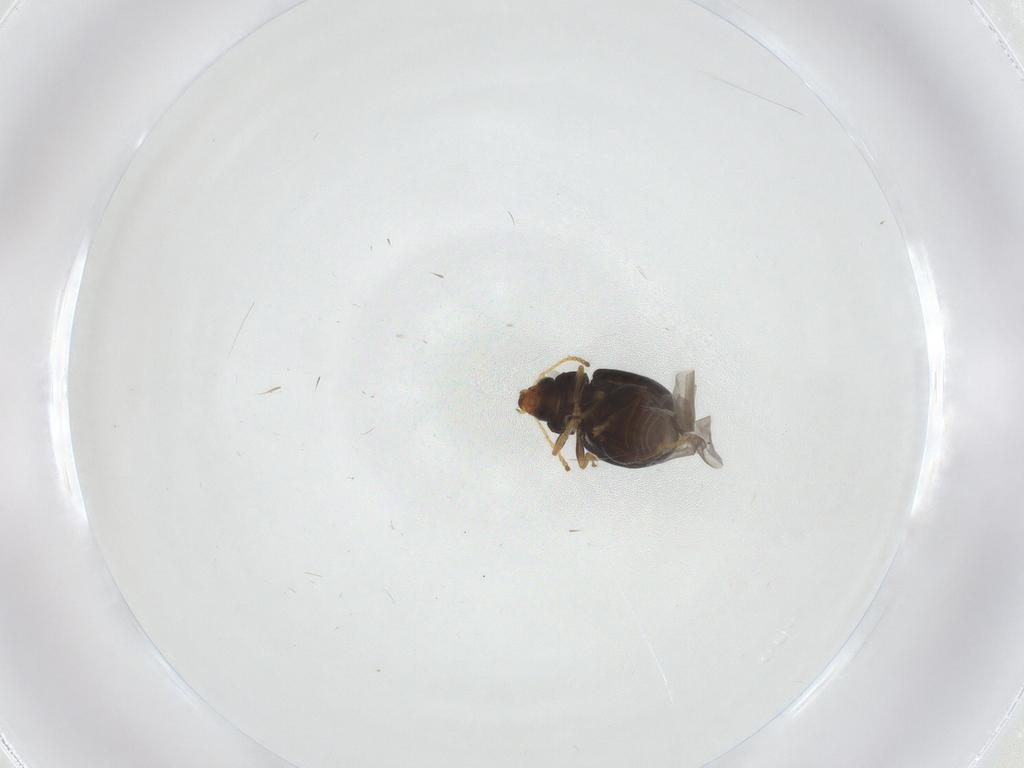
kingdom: Animalia
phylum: Arthropoda
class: Insecta
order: Coleoptera
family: Chrysomelidae
